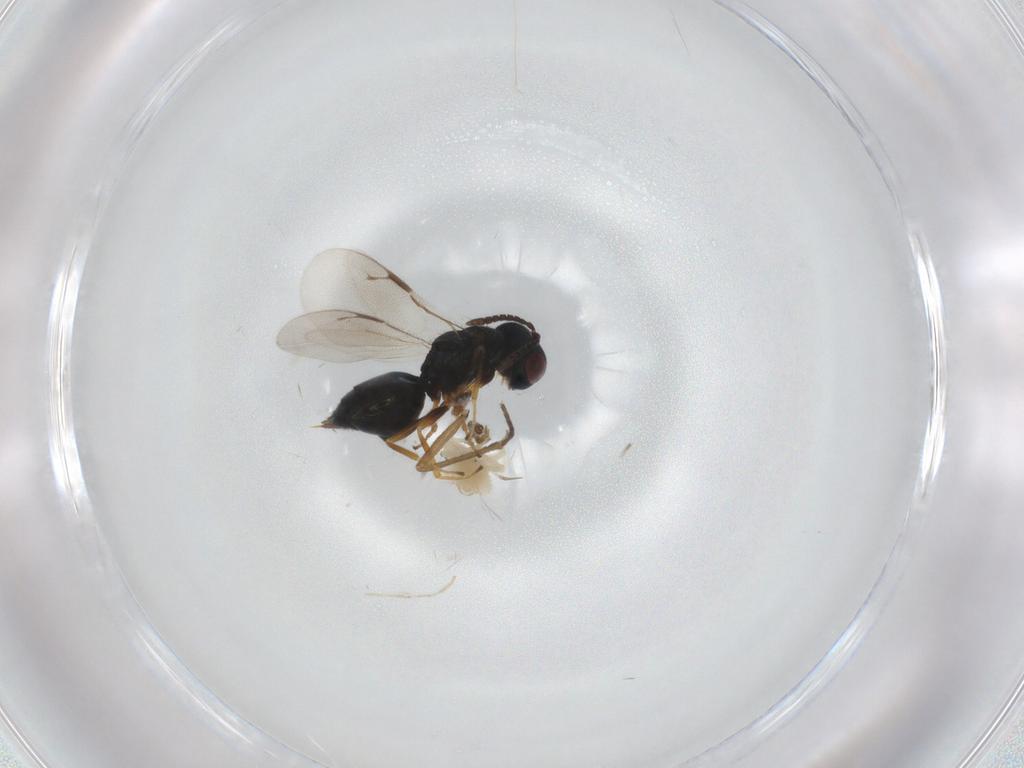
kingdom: Animalia
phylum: Arthropoda
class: Insecta
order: Hymenoptera
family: Pteromalidae
